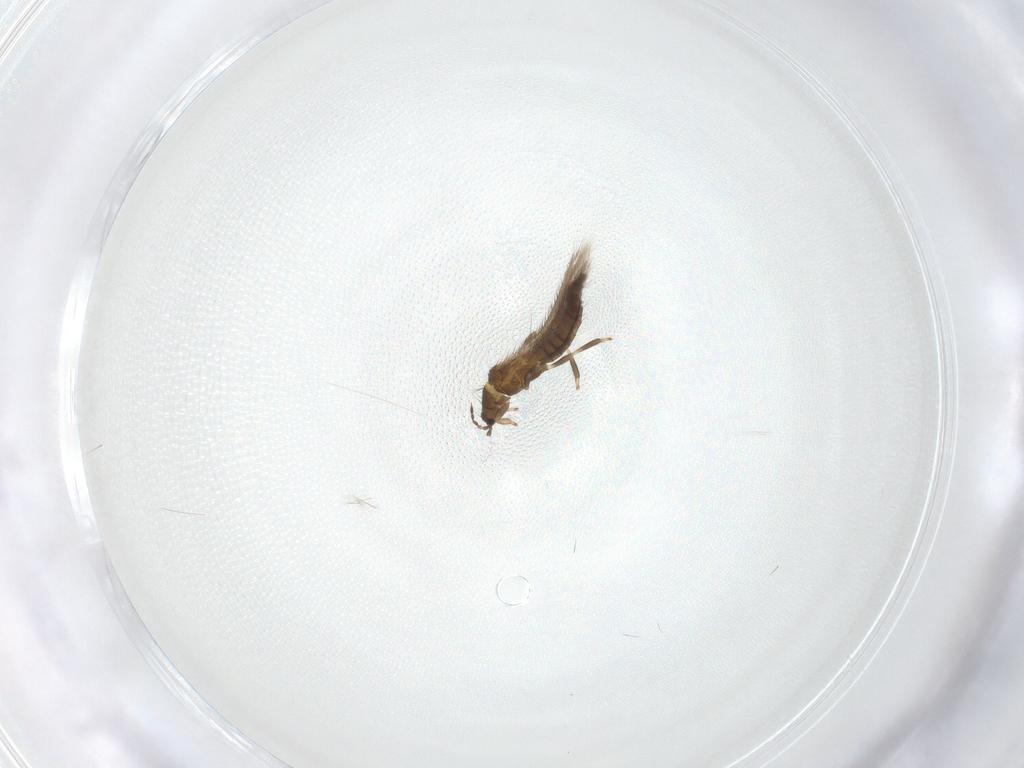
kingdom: Animalia
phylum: Arthropoda
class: Insecta
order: Thysanoptera
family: Thripidae
